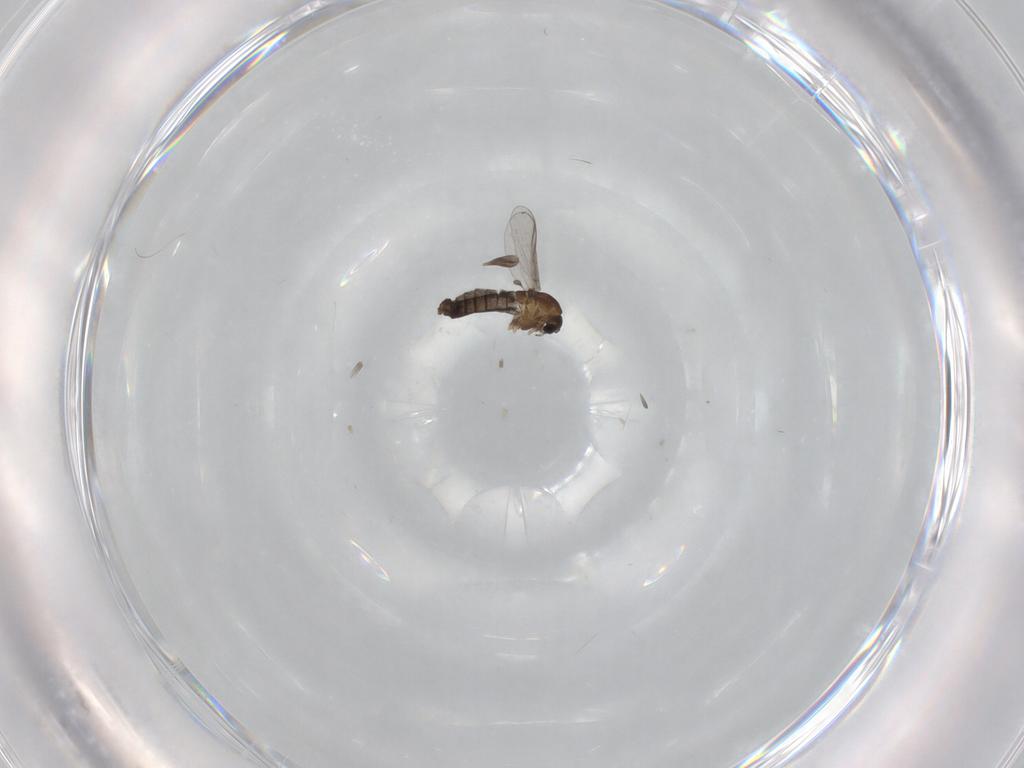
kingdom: Animalia
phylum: Arthropoda
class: Insecta
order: Diptera
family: Chironomidae
